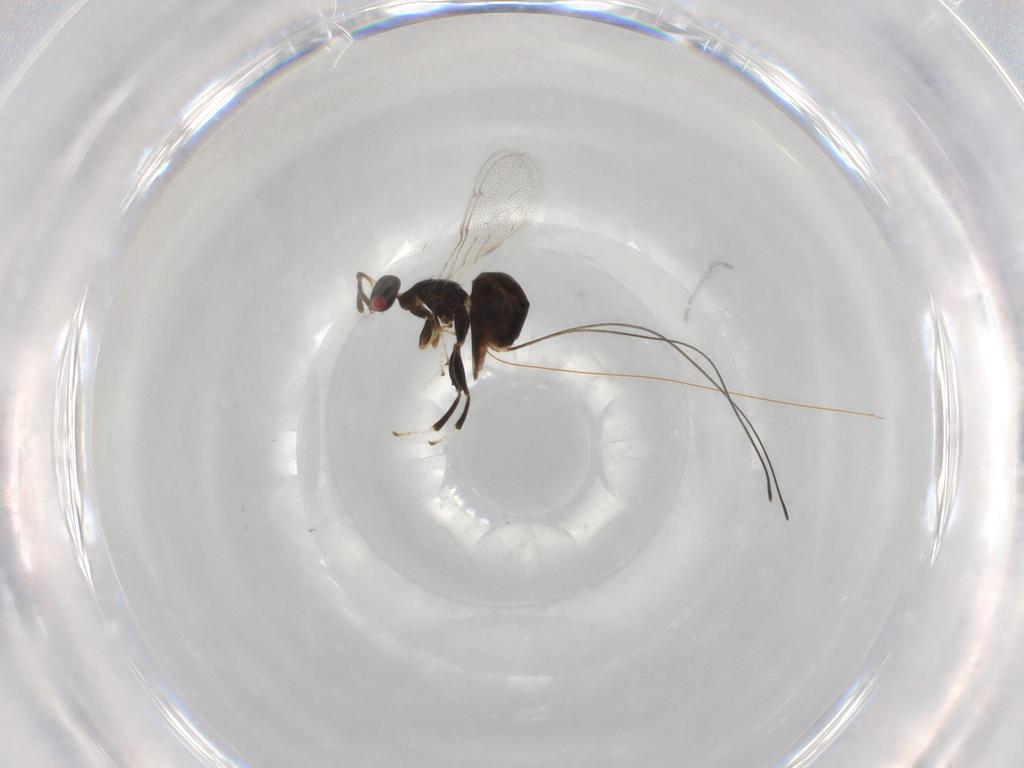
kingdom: Animalia
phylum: Arthropoda
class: Insecta
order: Hymenoptera
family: Torymidae
